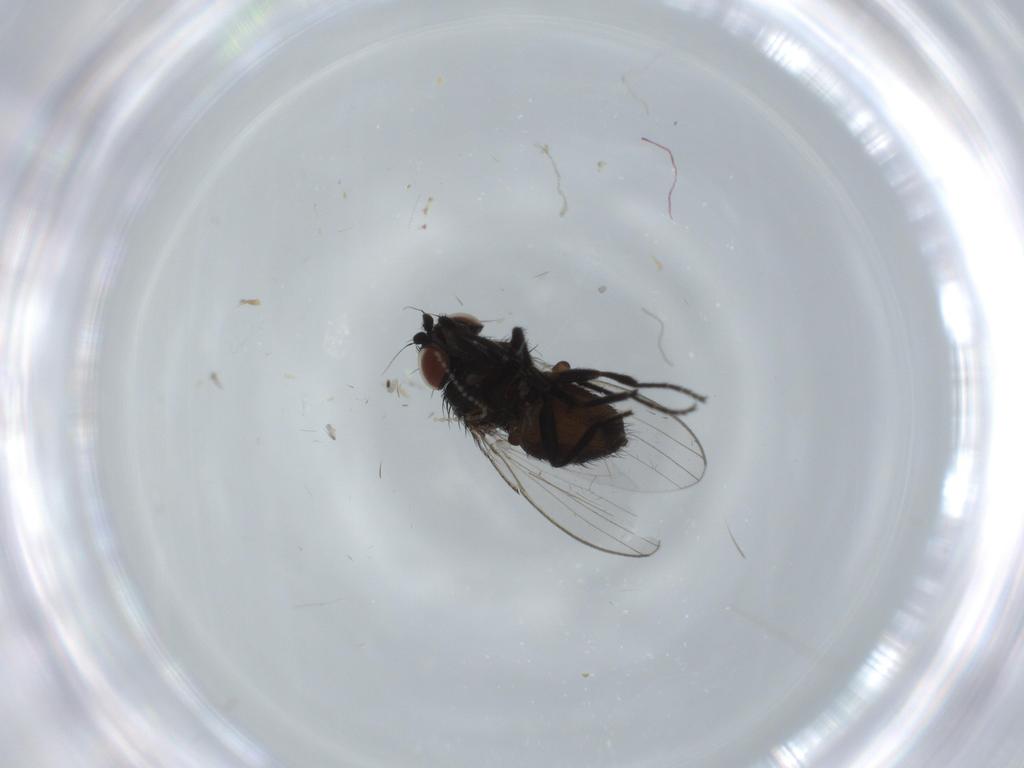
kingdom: Animalia
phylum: Arthropoda
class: Insecta
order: Diptera
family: Milichiidae
